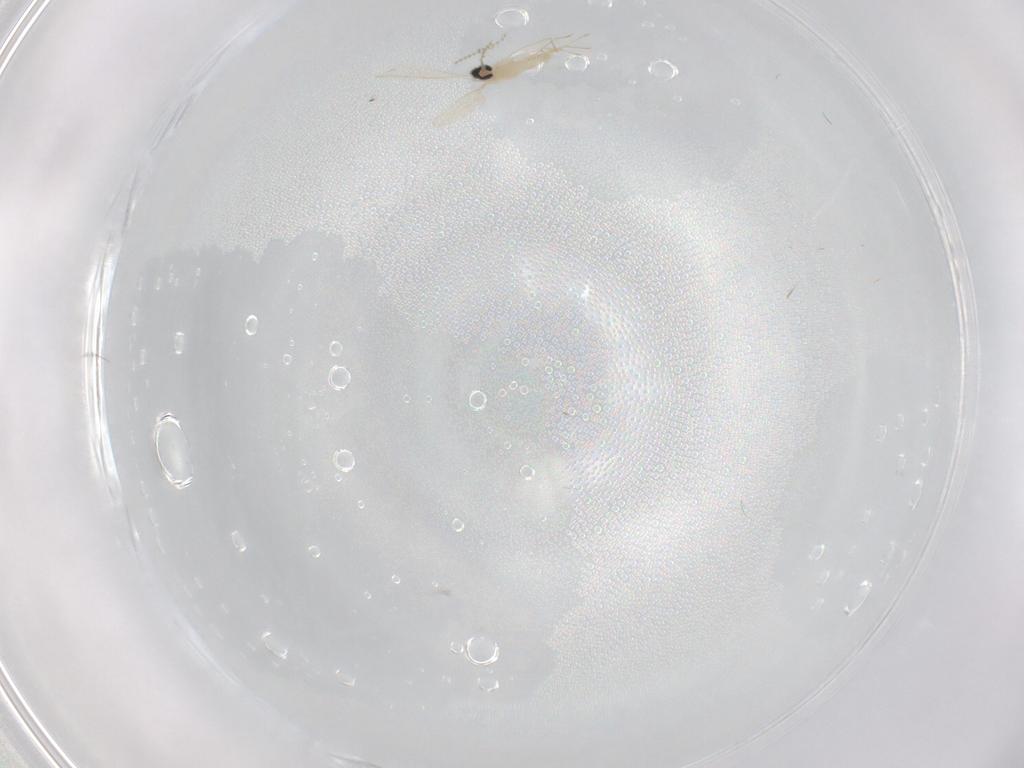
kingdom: Animalia
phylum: Arthropoda
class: Insecta
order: Diptera
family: Cecidomyiidae
